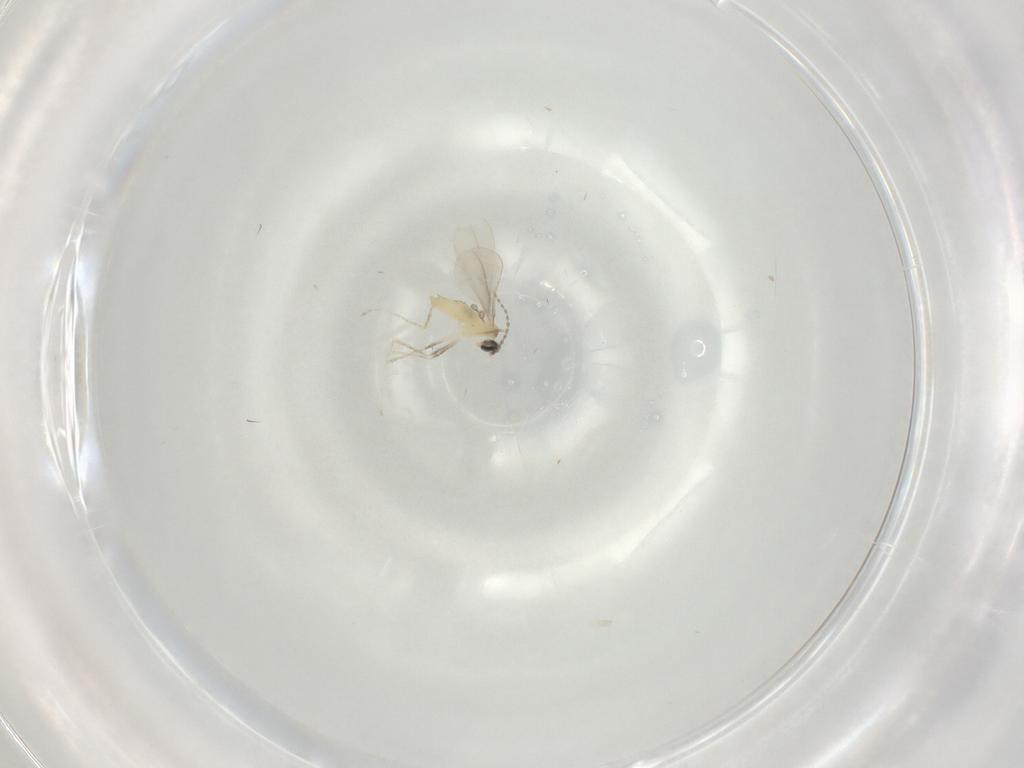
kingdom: Animalia
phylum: Arthropoda
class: Insecta
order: Diptera
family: Cecidomyiidae
